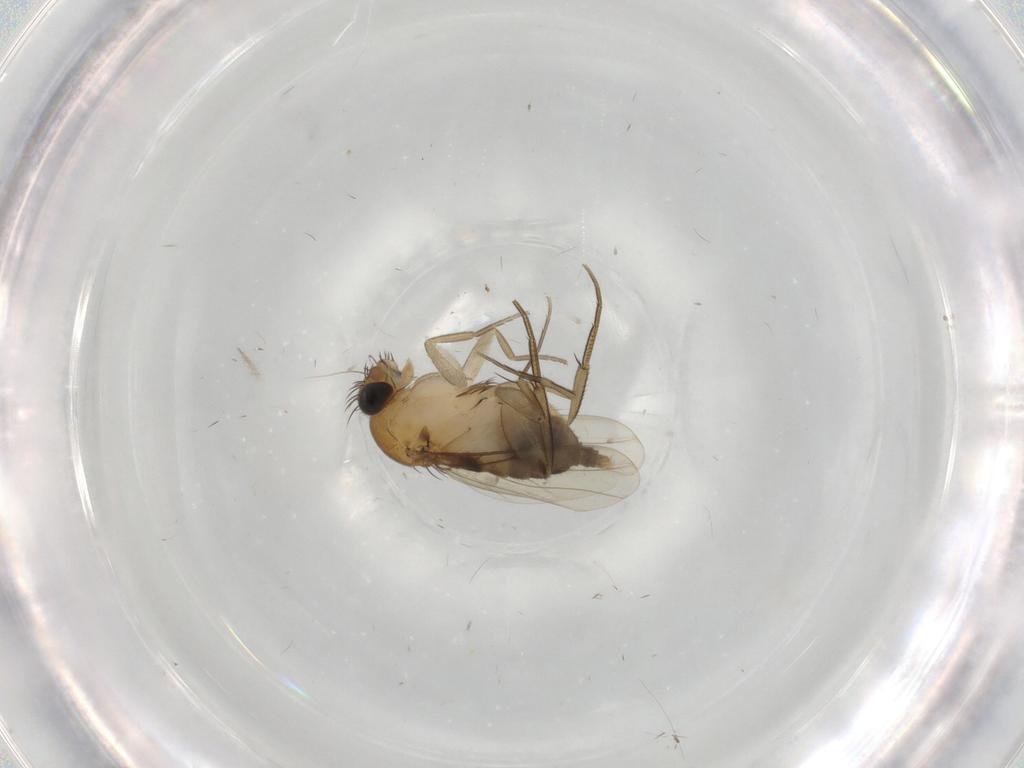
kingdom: Animalia
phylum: Arthropoda
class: Insecta
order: Diptera
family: Phoridae
